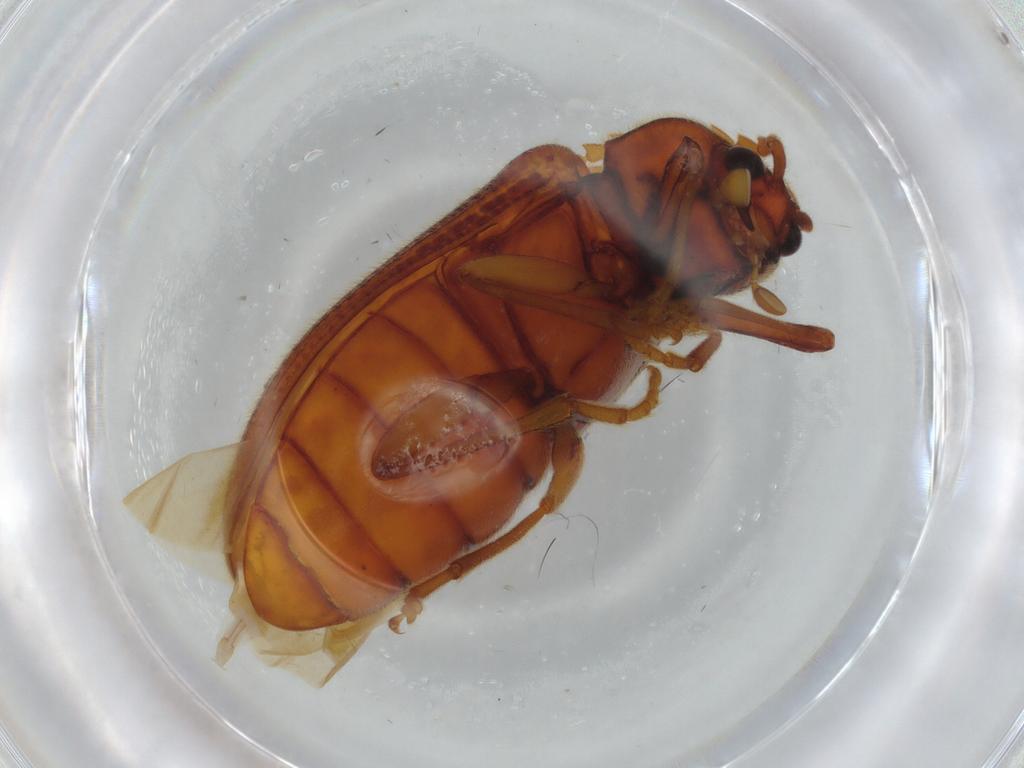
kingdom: Animalia
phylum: Arthropoda
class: Insecta
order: Coleoptera
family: Cerophytidae
